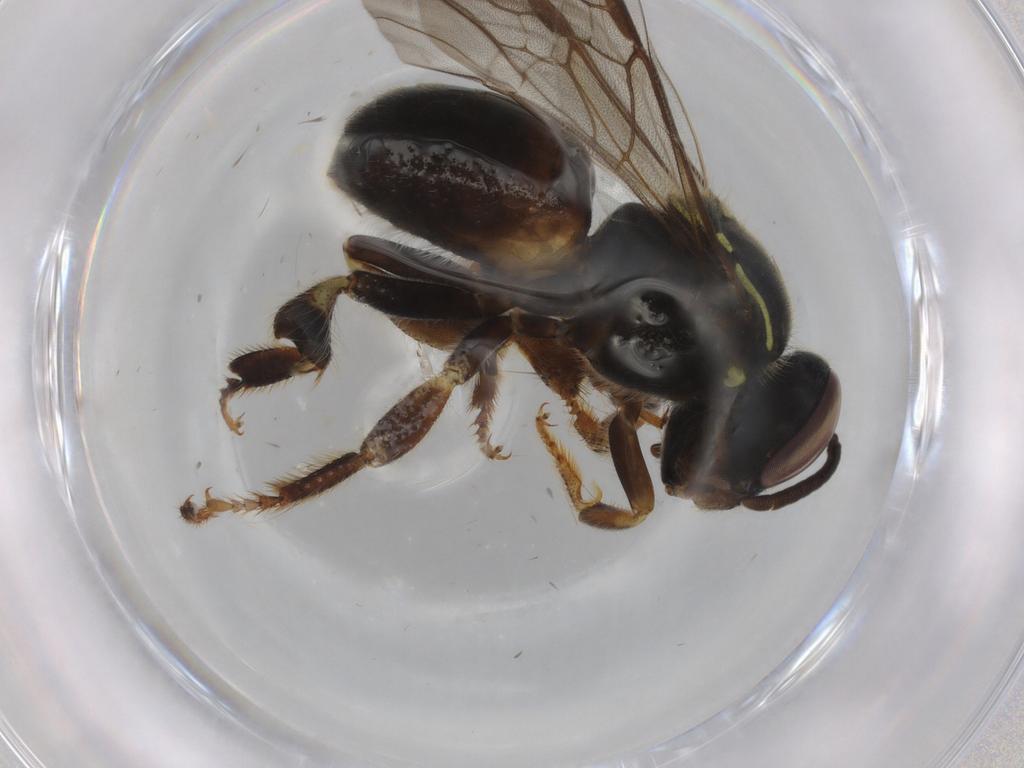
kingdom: Animalia
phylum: Arthropoda
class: Insecta
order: Hymenoptera
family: Apidae
